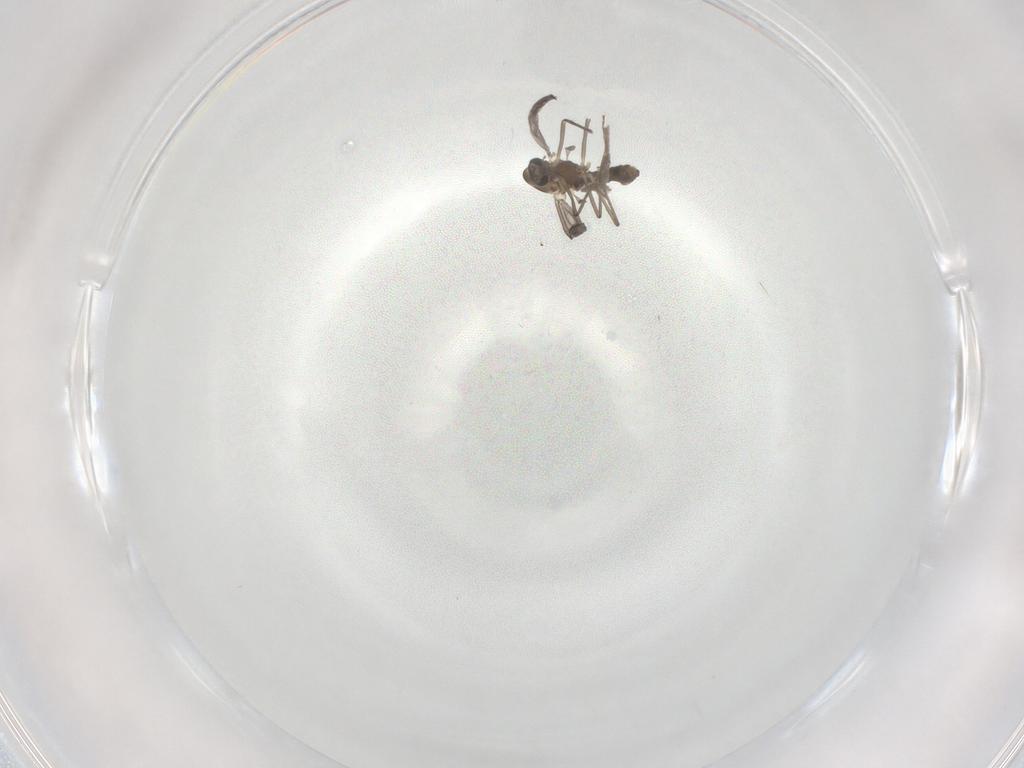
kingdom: Animalia
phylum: Arthropoda
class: Insecta
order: Diptera
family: Chironomidae
